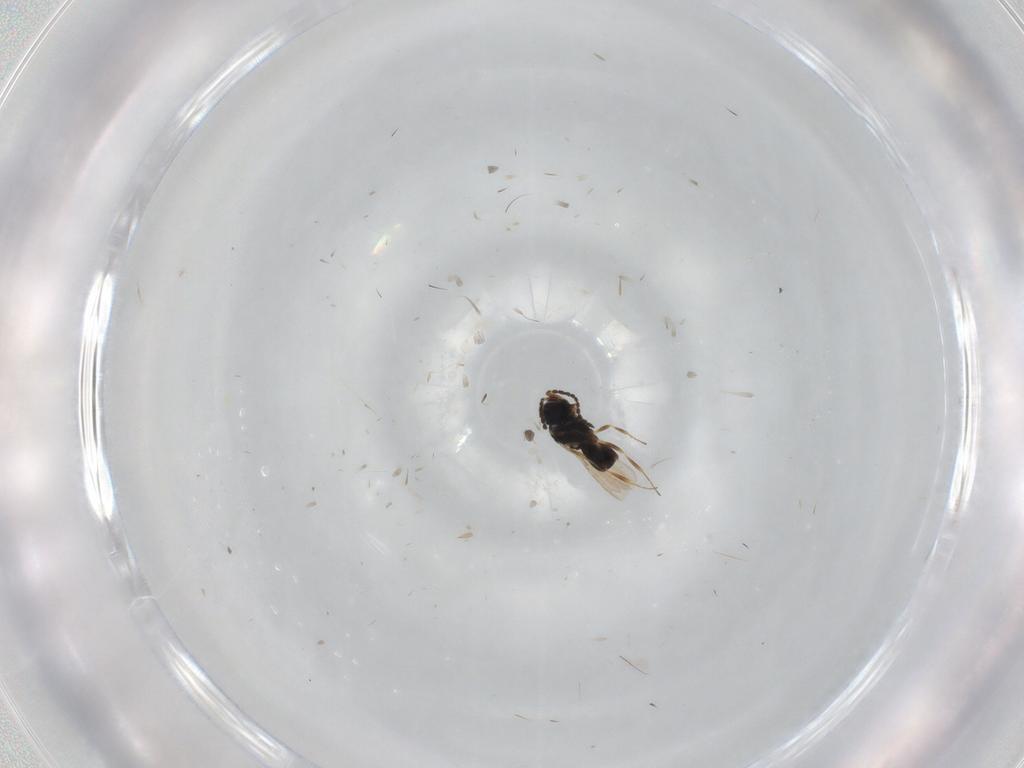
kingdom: Animalia
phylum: Arthropoda
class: Insecta
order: Hymenoptera
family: Scelionidae
